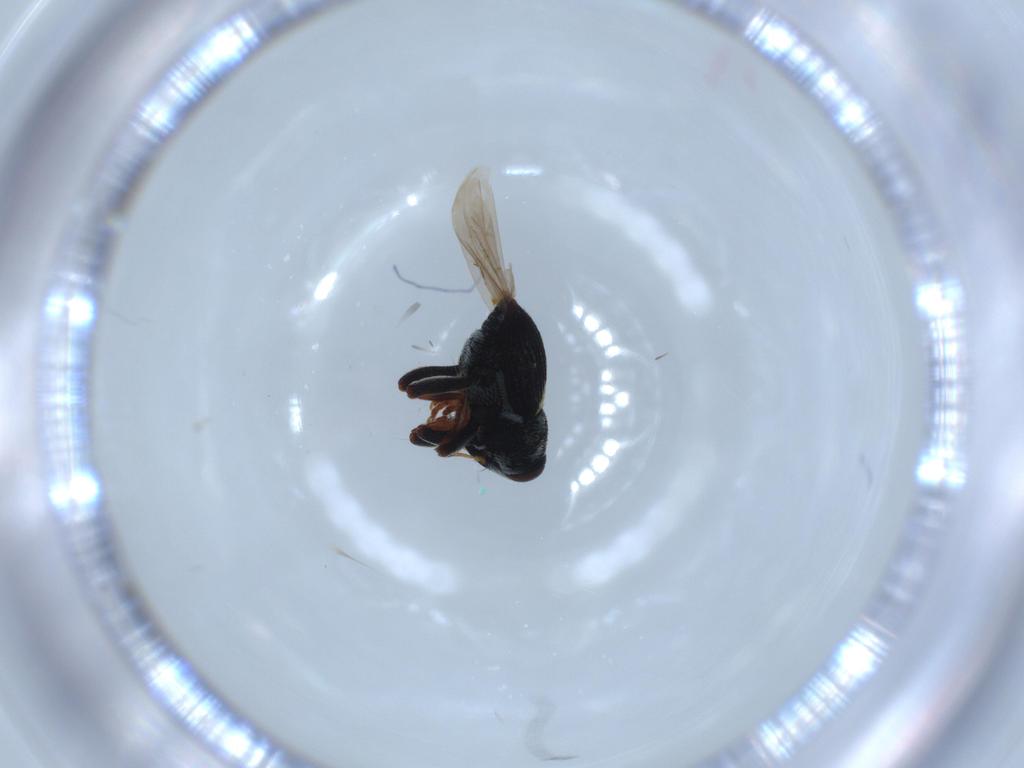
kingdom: Animalia
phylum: Arthropoda
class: Insecta
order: Coleoptera
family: Curculionidae
